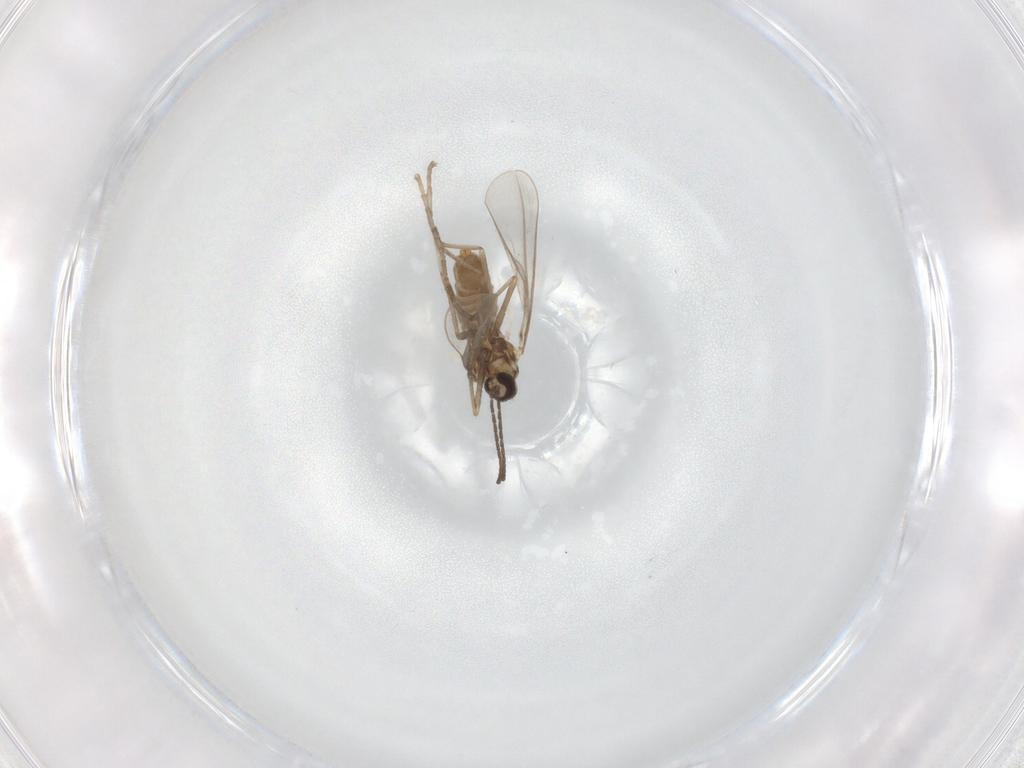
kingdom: Animalia
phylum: Arthropoda
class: Insecta
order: Diptera
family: Cecidomyiidae
